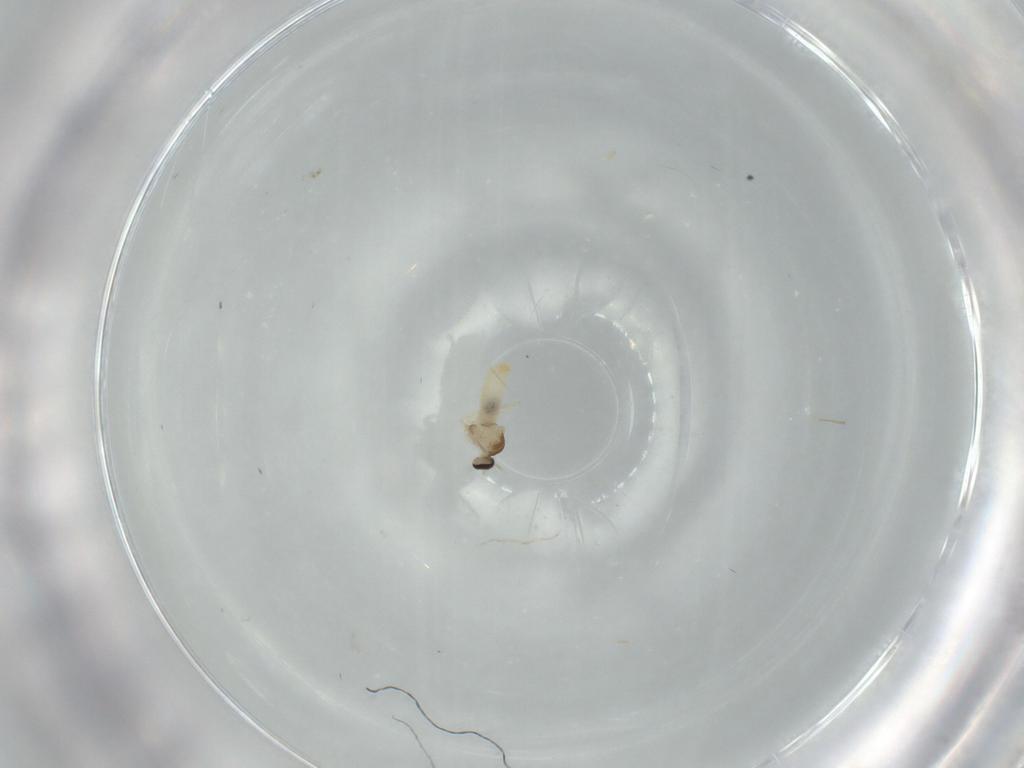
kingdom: Animalia
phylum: Arthropoda
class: Insecta
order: Diptera
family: Cecidomyiidae
